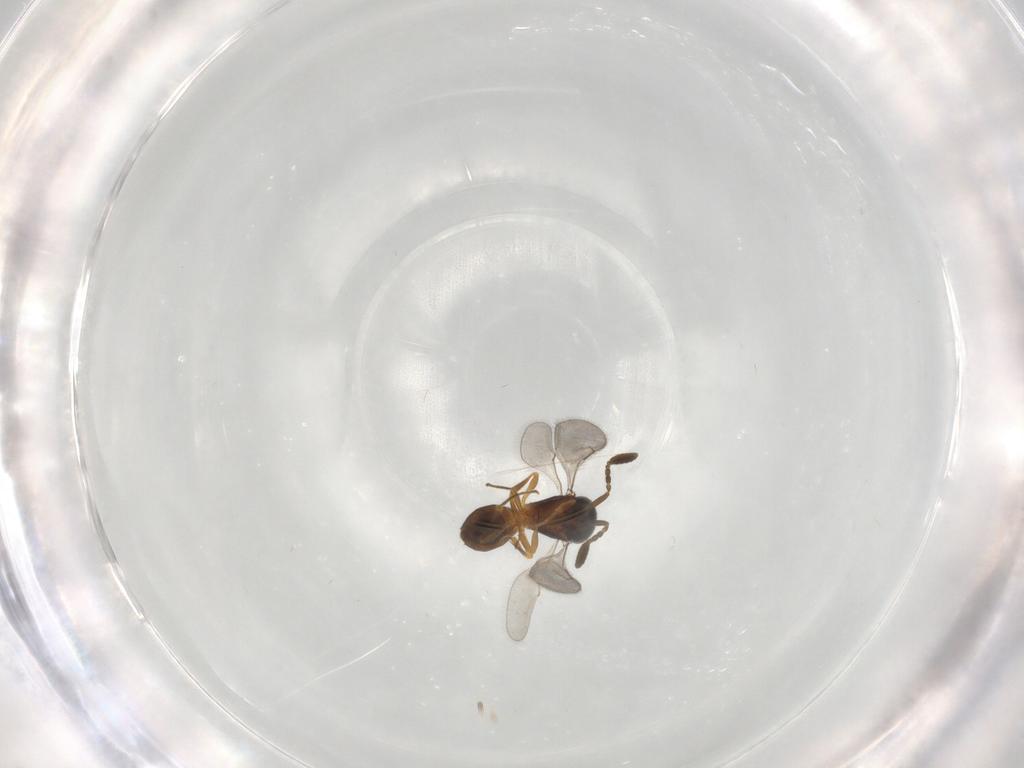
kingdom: Animalia
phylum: Arthropoda
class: Insecta
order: Hymenoptera
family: Scelionidae
